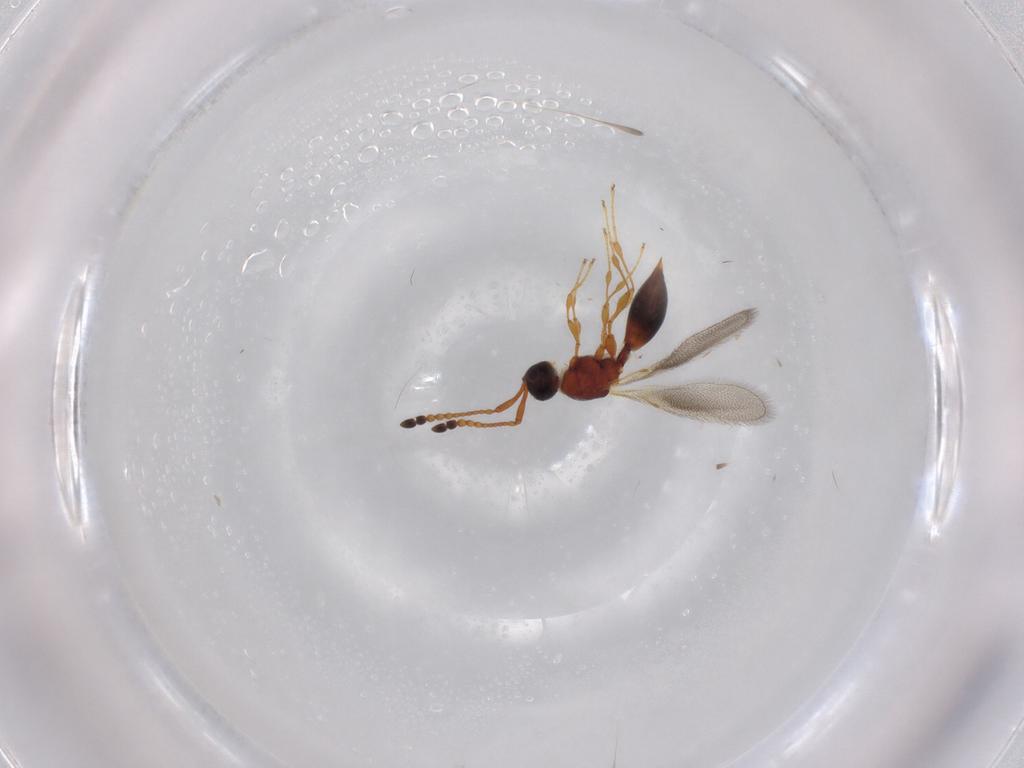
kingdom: Animalia
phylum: Arthropoda
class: Insecta
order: Hymenoptera
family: Diapriidae
